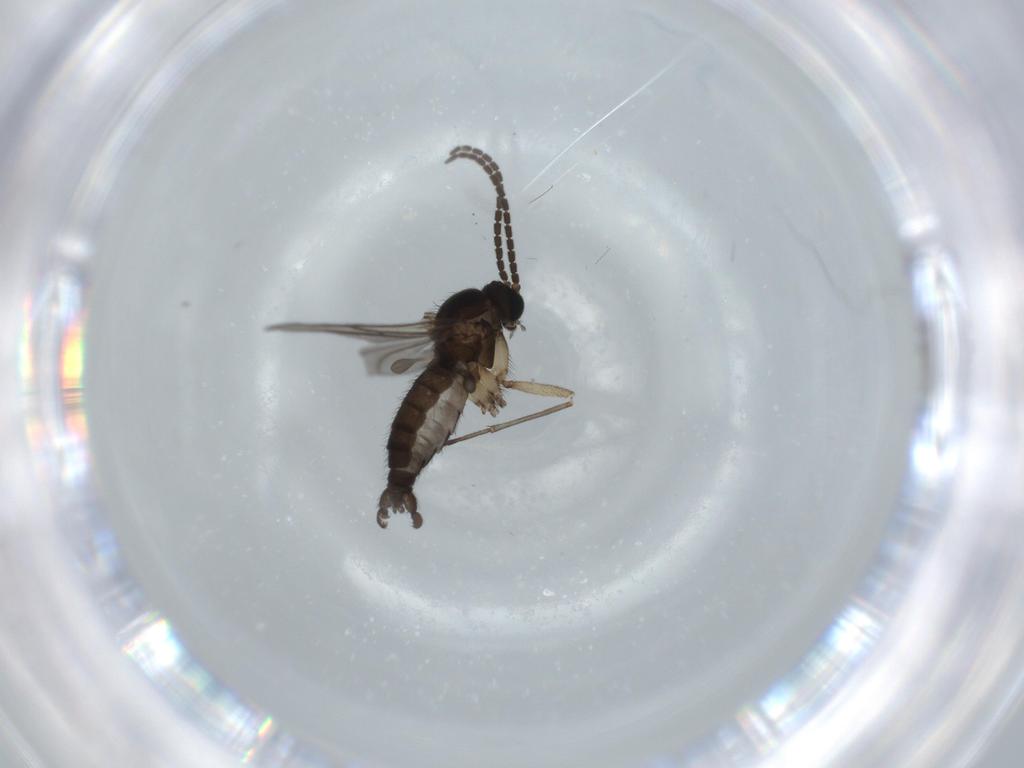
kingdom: Animalia
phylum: Arthropoda
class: Insecta
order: Diptera
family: Sciaridae
